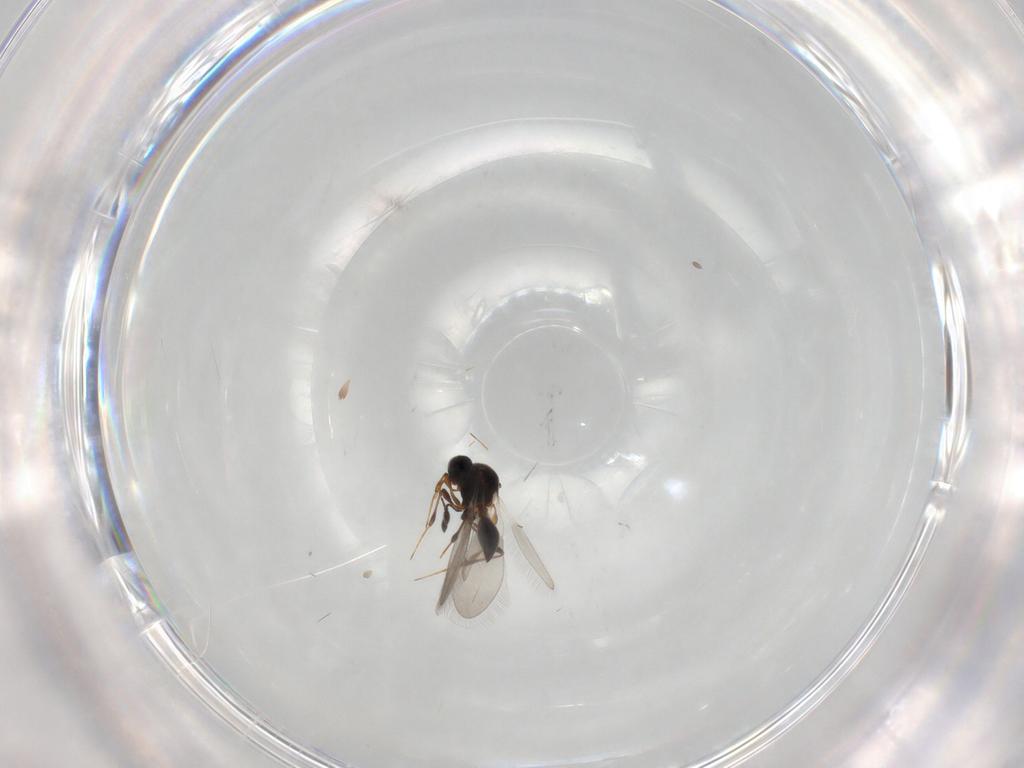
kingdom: Animalia
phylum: Arthropoda
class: Insecta
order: Hymenoptera
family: Platygastridae
